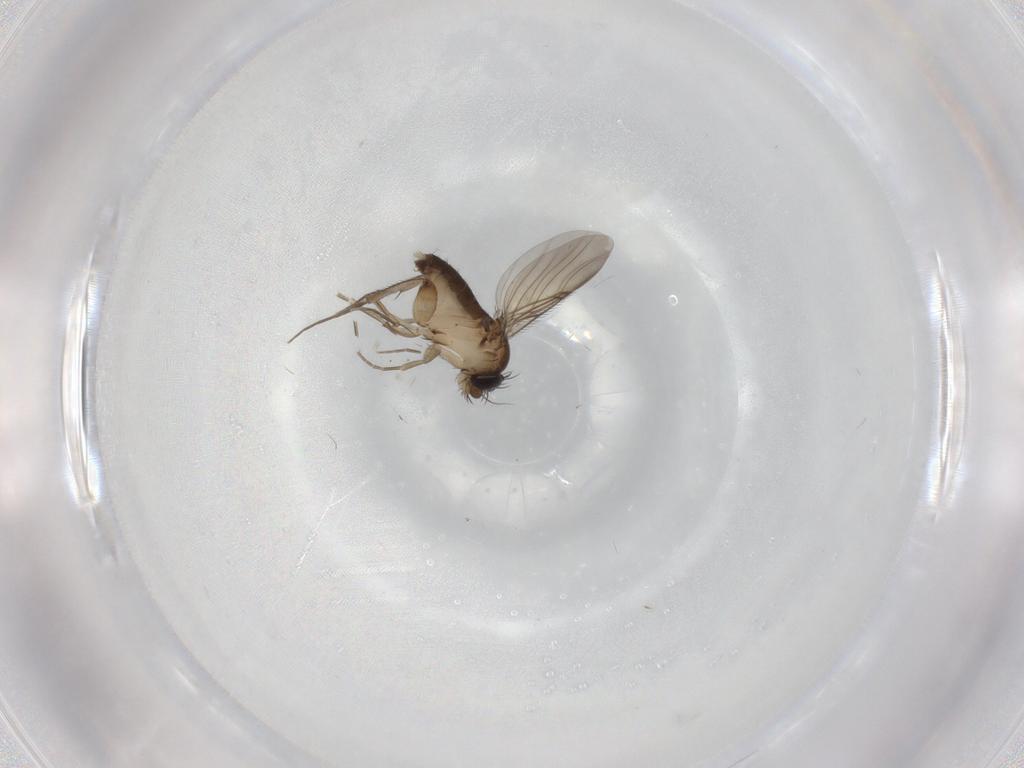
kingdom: Animalia
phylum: Arthropoda
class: Insecta
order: Diptera
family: Phoridae
